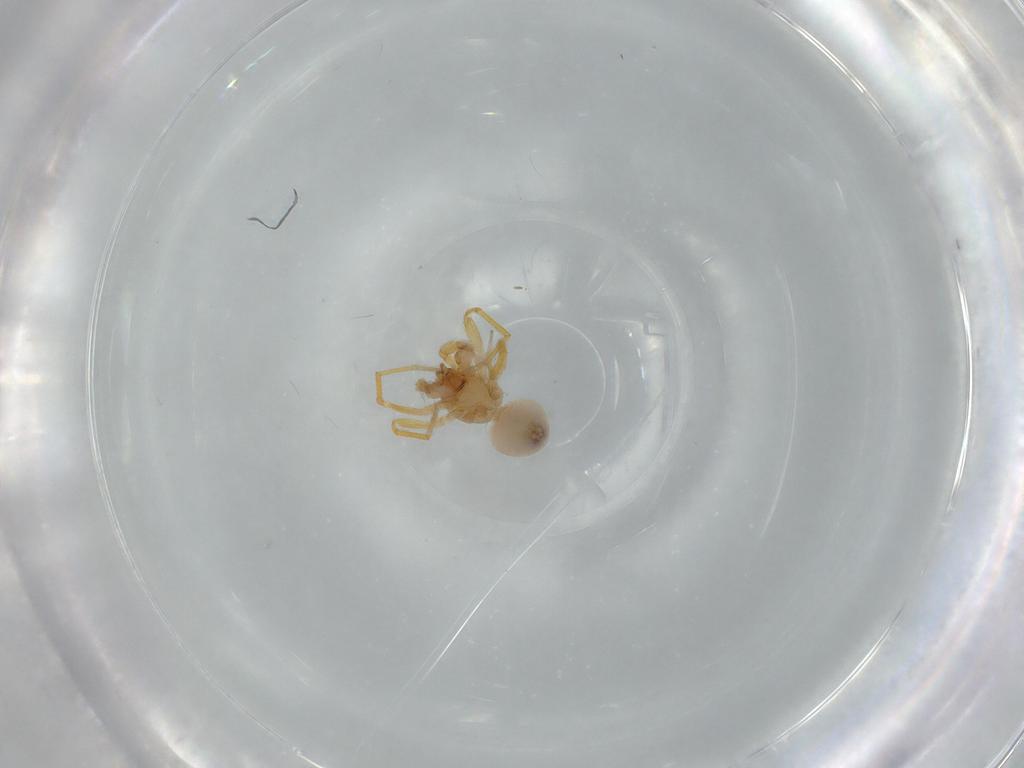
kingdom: Animalia
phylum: Arthropoda
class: Arachnida
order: Araneae
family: Oonopidae
